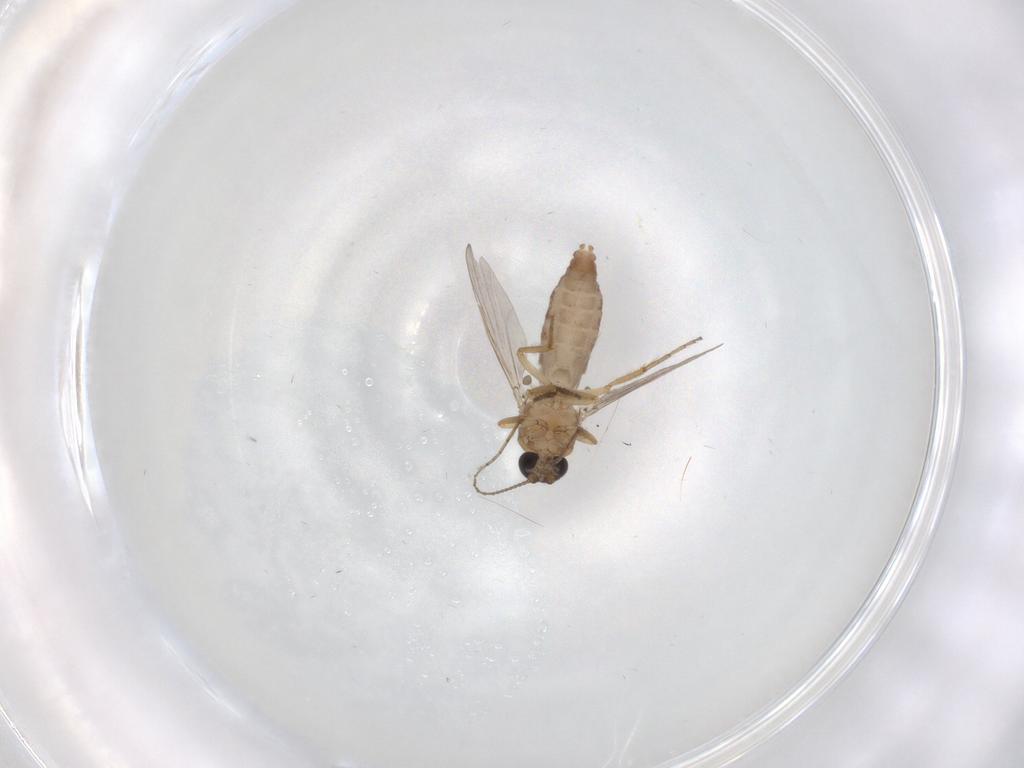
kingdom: Animalia
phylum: Arthropoda
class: Insecta
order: Diptera
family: Ceratopogonidae
